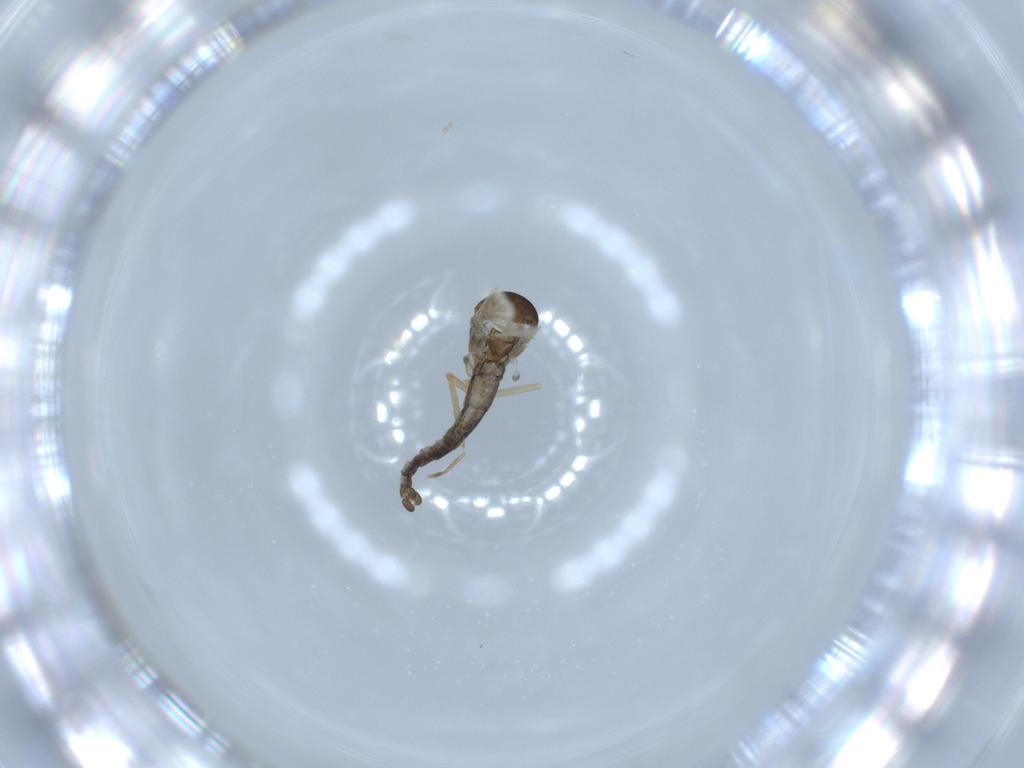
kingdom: Animalia
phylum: Arthropoda
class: Insecta
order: Diptera
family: Ceratopogonidae
